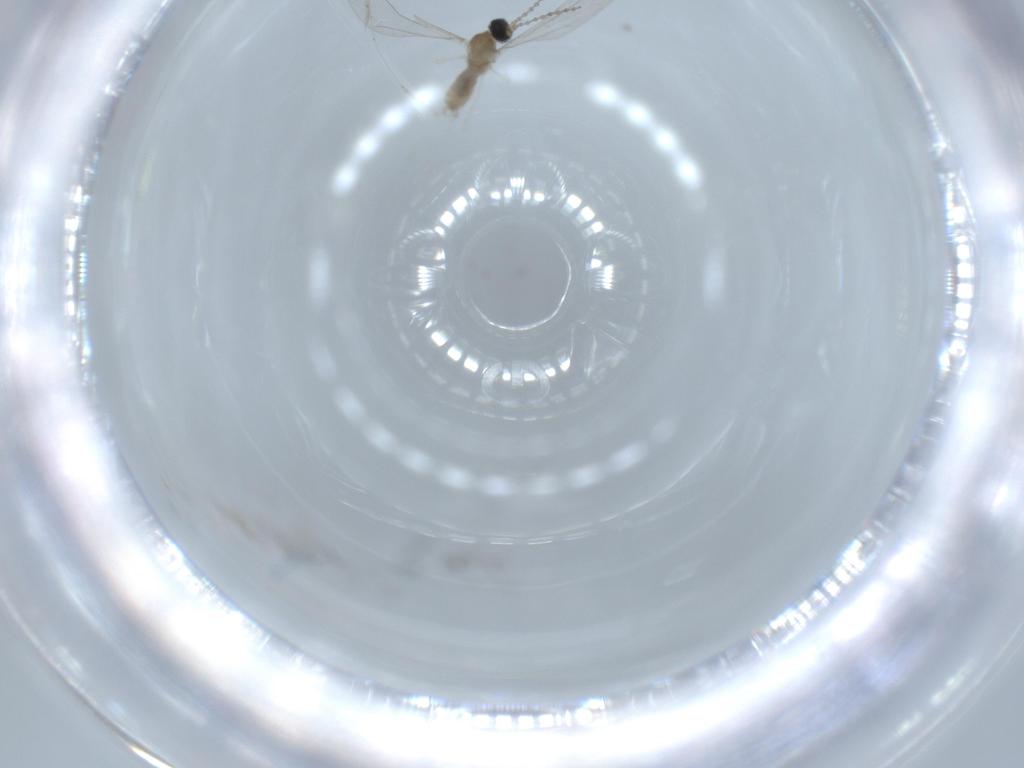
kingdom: Animalia
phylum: Arthropoda
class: Insecta
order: Diptera
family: Cecidomyiidae
